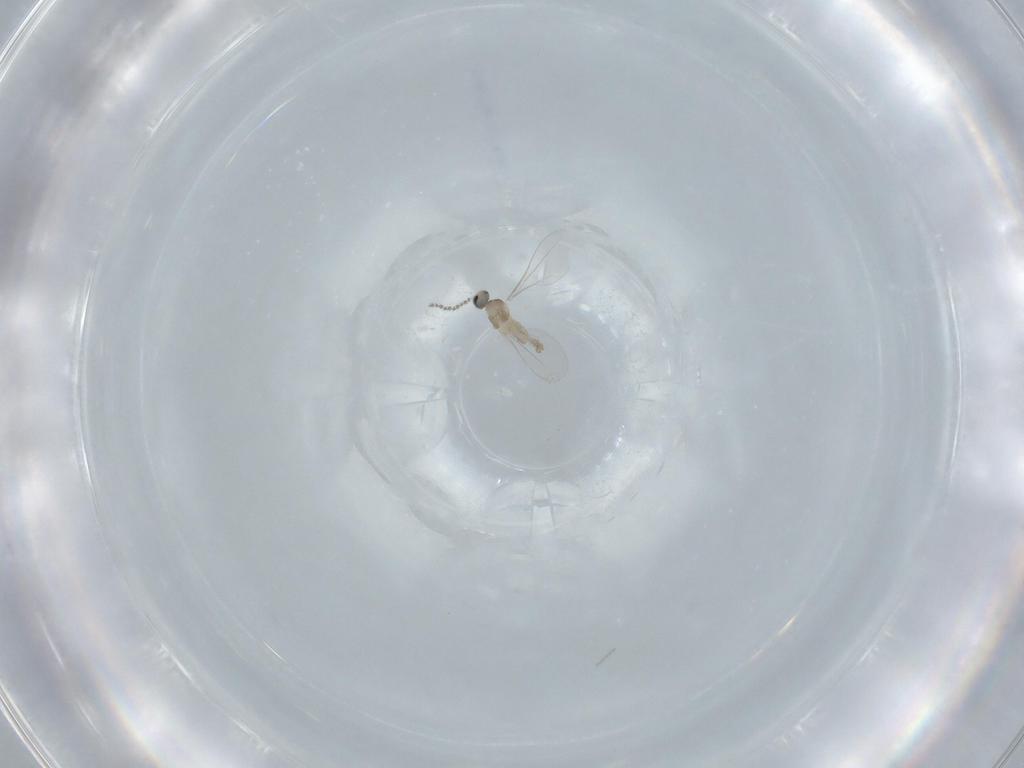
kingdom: Animalia
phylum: Arthropoda
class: Insecta
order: Diptera
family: Cecidomyiidae
